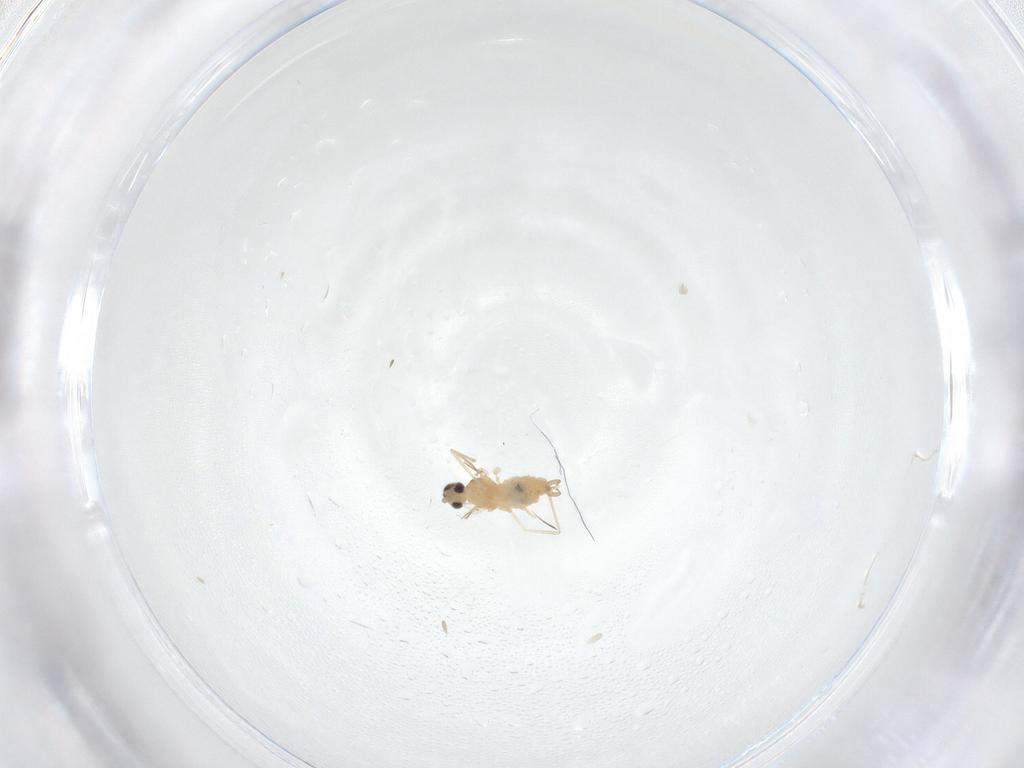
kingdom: Animalia
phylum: Arthropoda
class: Insecta
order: Diptera
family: Cecidomyiidae
